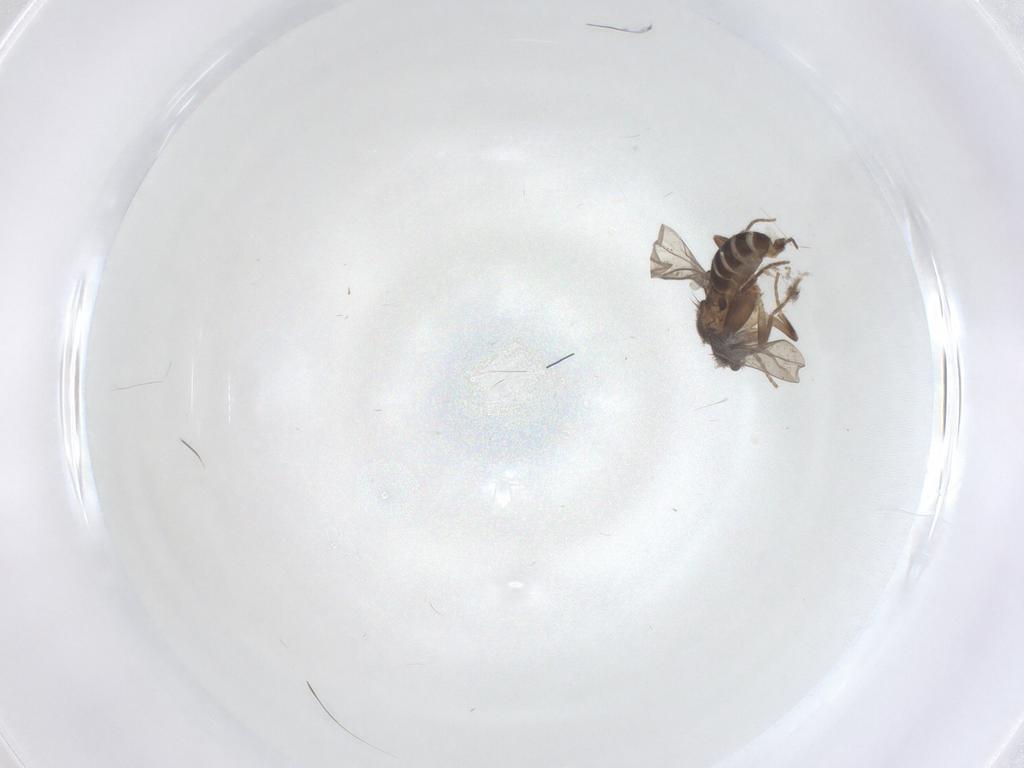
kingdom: Animalia
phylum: Arthropoda
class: Insecta
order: Diptera
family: Phoridae
